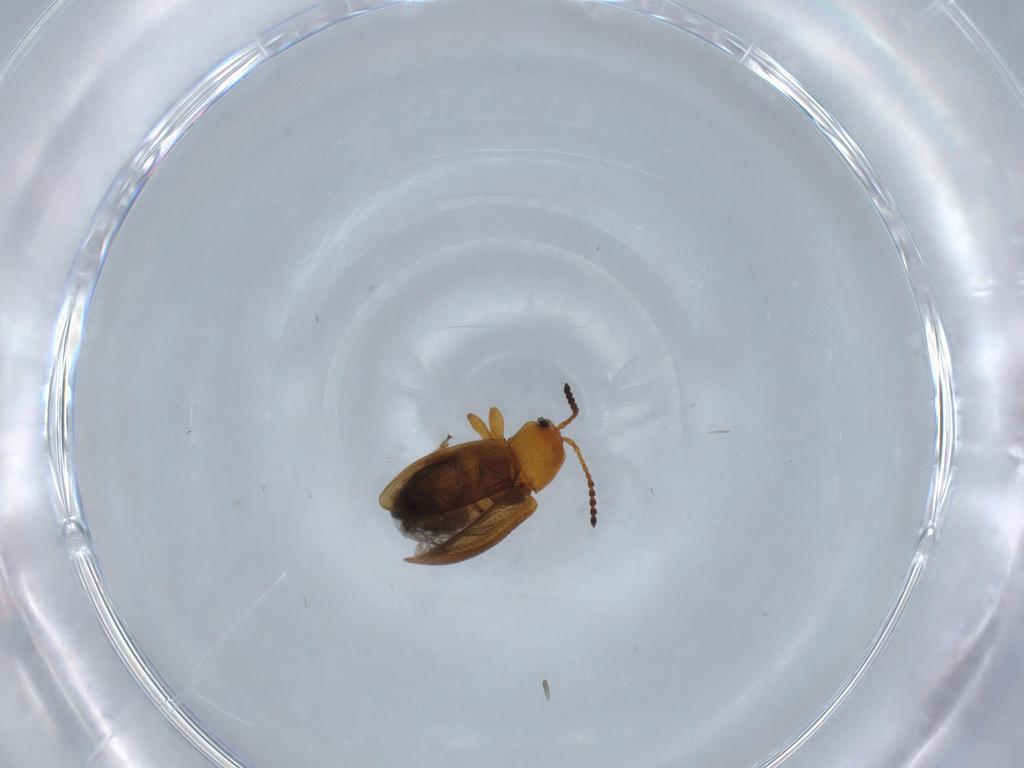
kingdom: Animalia
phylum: Arthropoda
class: Insecta
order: Coleoptera
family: Chrysomelidae
